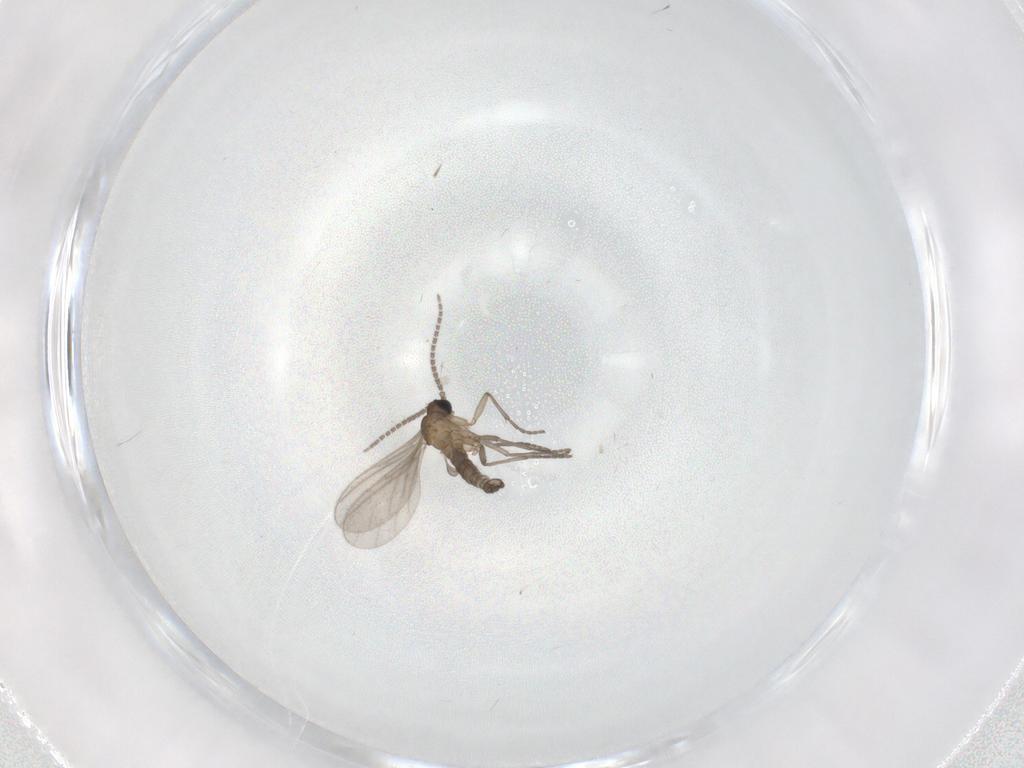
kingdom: Animalia
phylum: Arthropoda
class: Insecta
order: Diptera
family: Sciaridae
